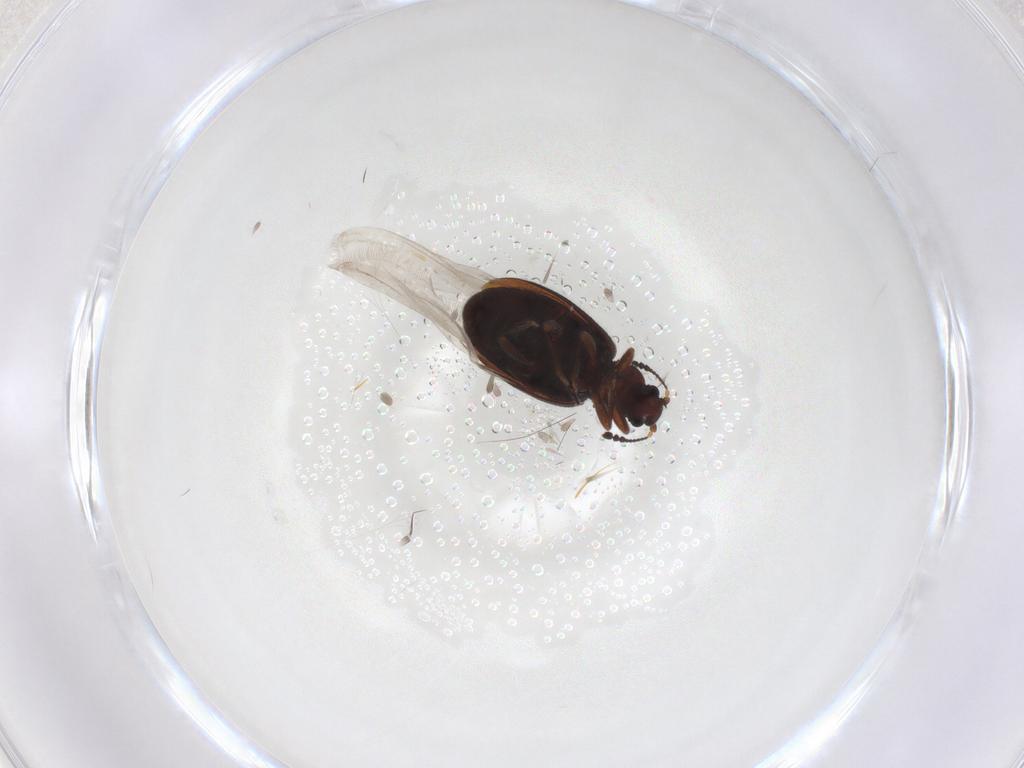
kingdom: Animalia
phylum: Arthropoda
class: Insecta
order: Coleoptera
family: Latridiidae
